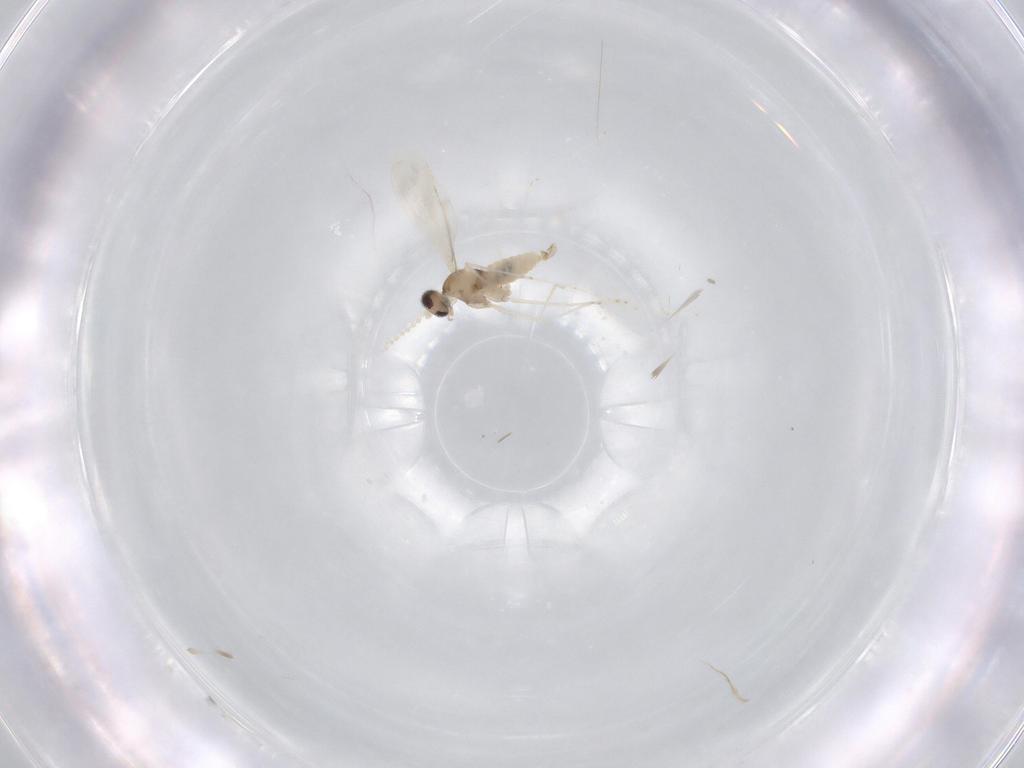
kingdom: Animalia
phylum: Arthropoda
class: Insecta
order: Diptera
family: Cecidomyiidae
